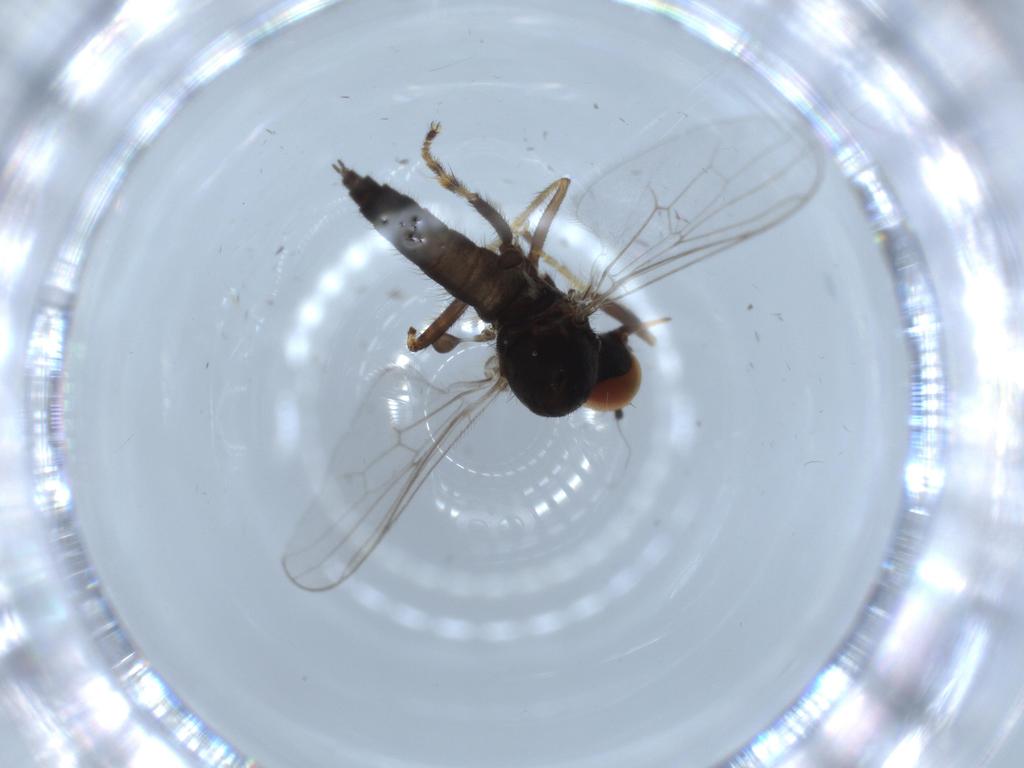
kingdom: Animalia
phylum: Arthropoda
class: Insecta
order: Diptera
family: Hybotidae
